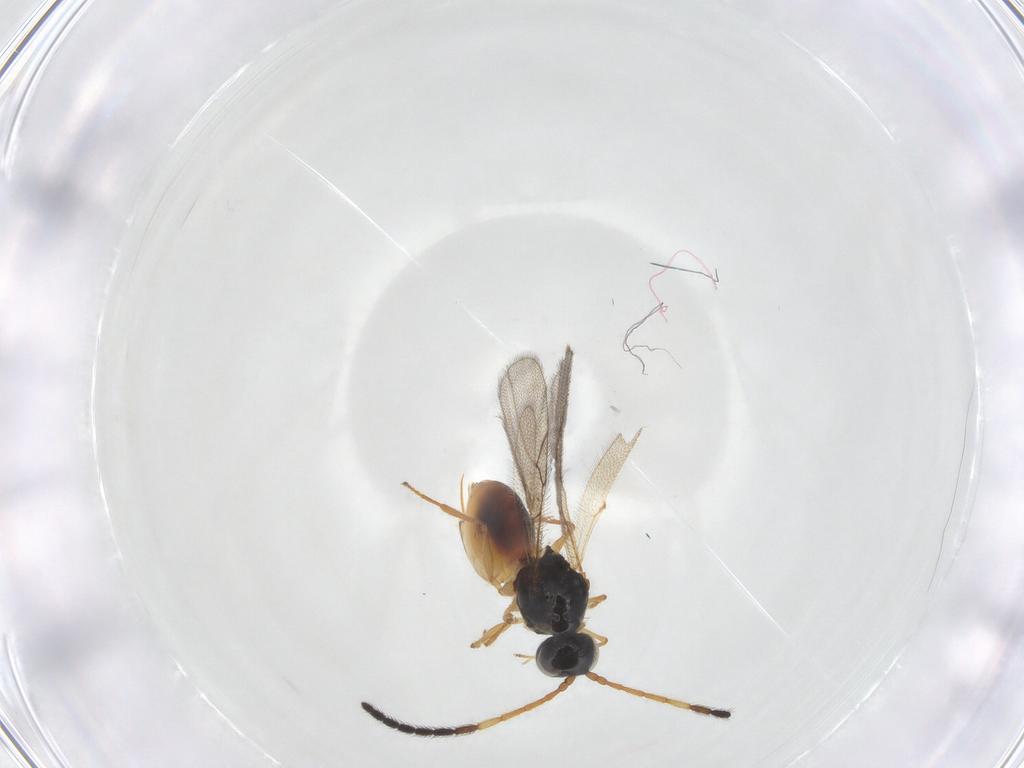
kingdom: Animalia
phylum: Arthropoda
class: Insecta
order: Hymenoptera
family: Figitidae
